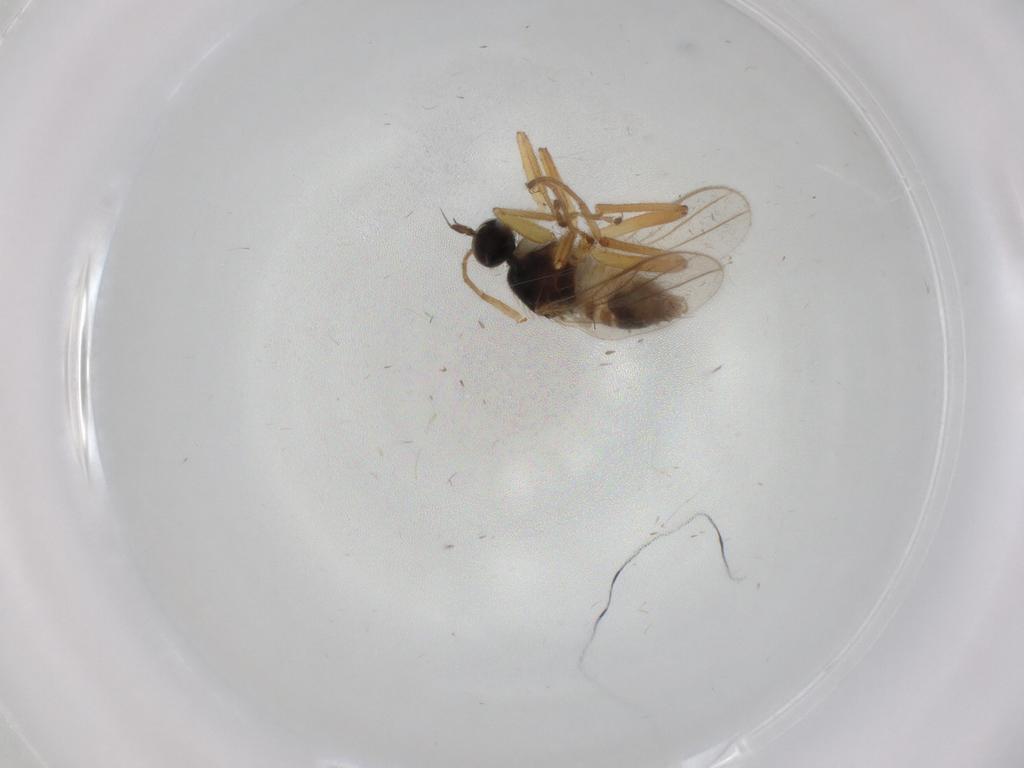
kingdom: Animalia
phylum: Arthropoda
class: Insecta
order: Diptera
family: Hybotidae
